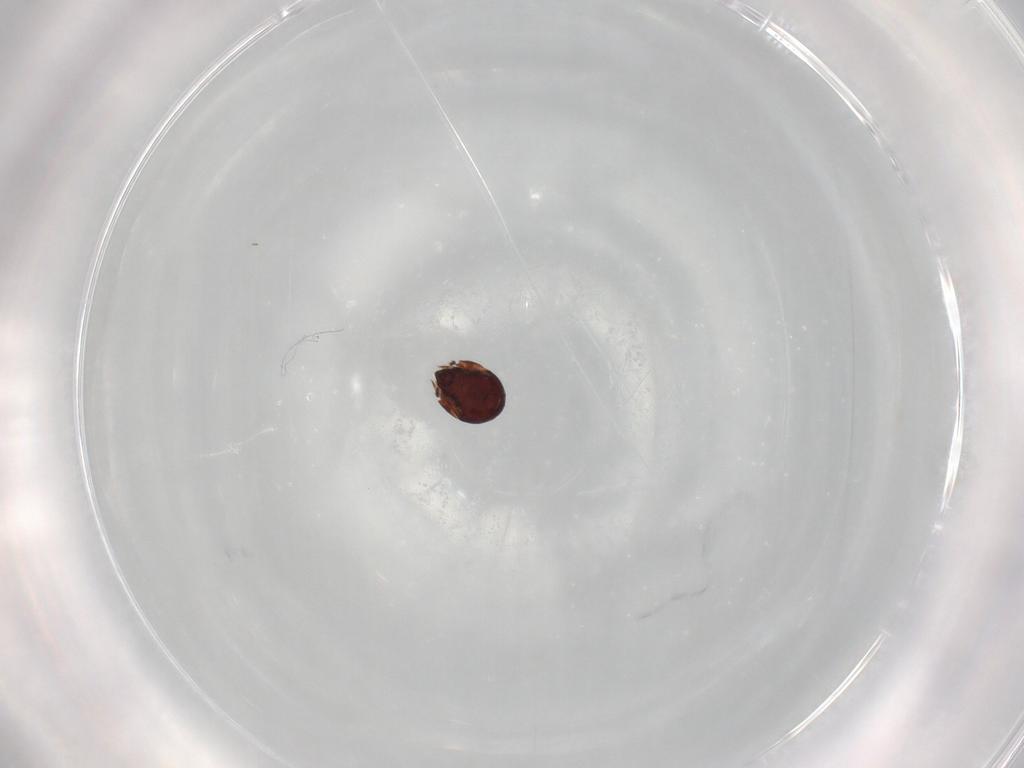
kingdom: Animalia
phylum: Arthropoda
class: Arachnida
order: Sarcoptiformes
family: Humerobatidae
